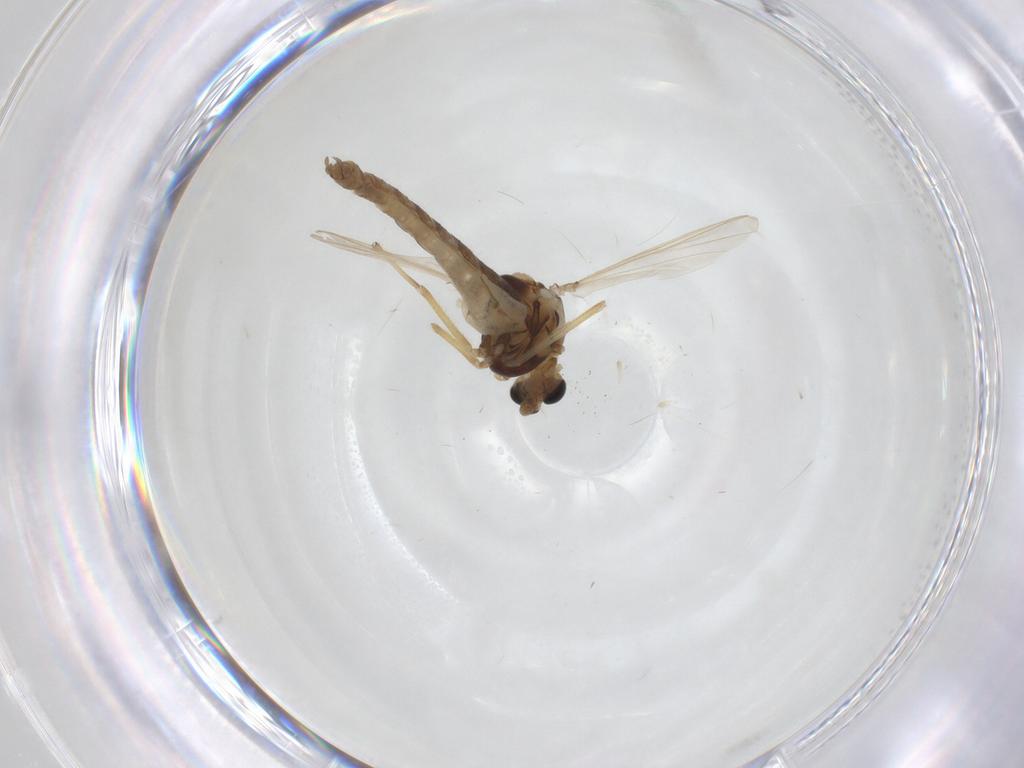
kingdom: Animalia
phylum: Arthropoda
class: Insecta
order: Diptera
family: Chironomidae
